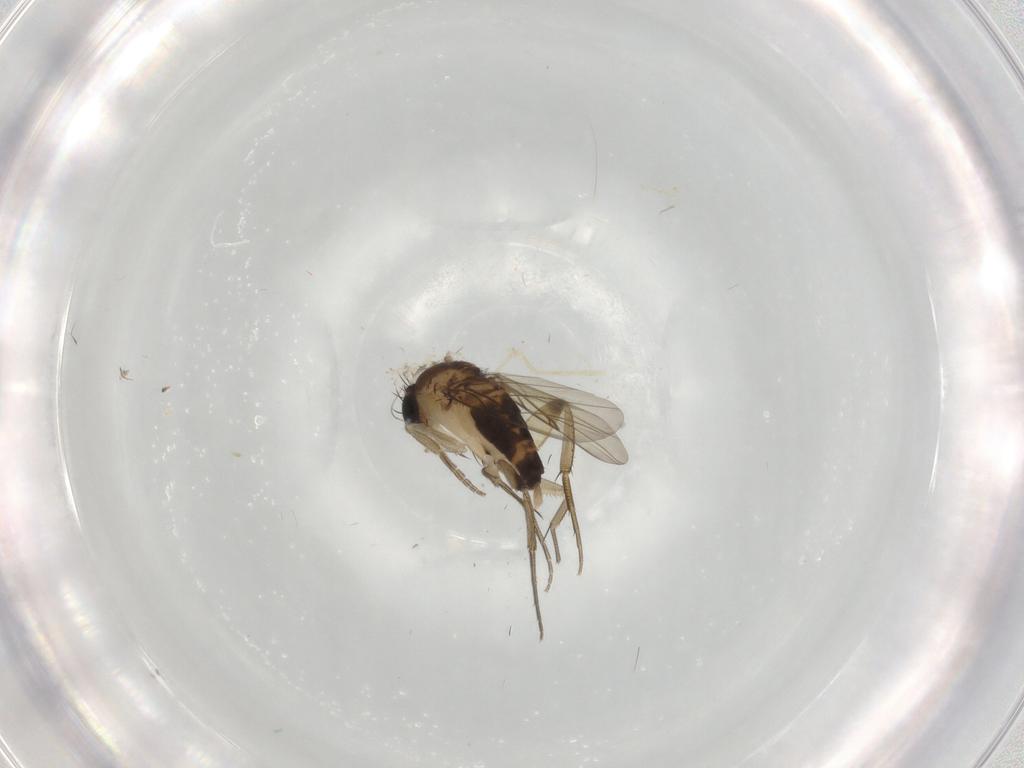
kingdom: Animalia
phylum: Arthropoda
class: Insecta
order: Diptera
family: Phoridae
